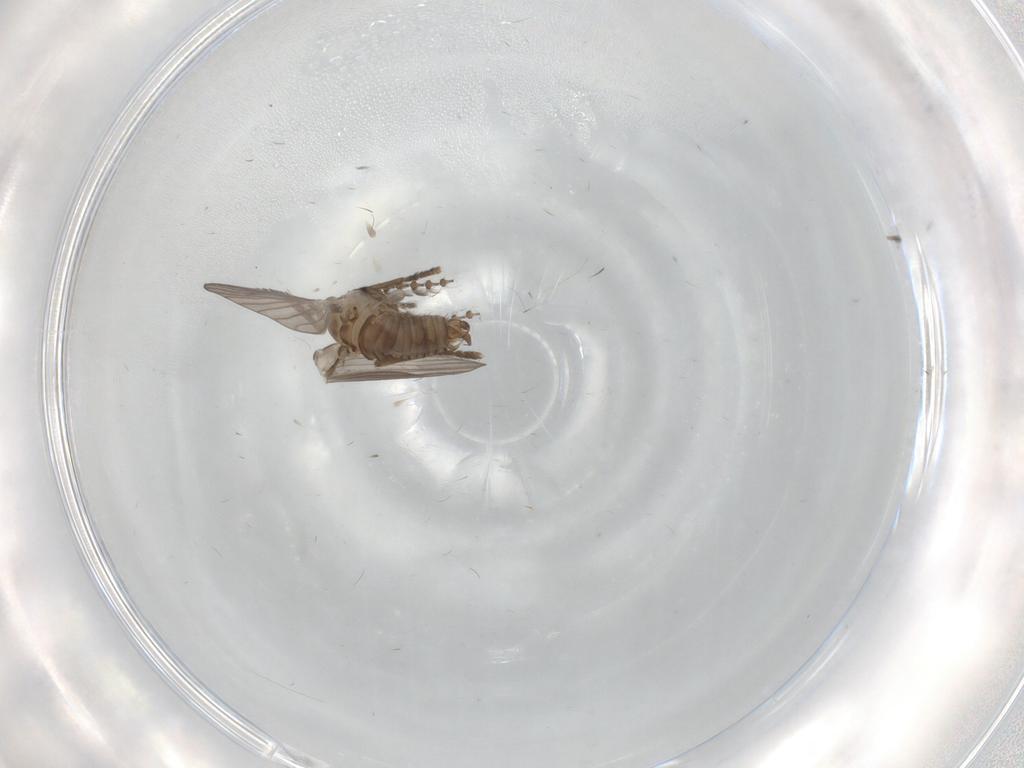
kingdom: Animalia
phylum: Arthropoda
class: Insecta
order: Diptera
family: Psychodidae
